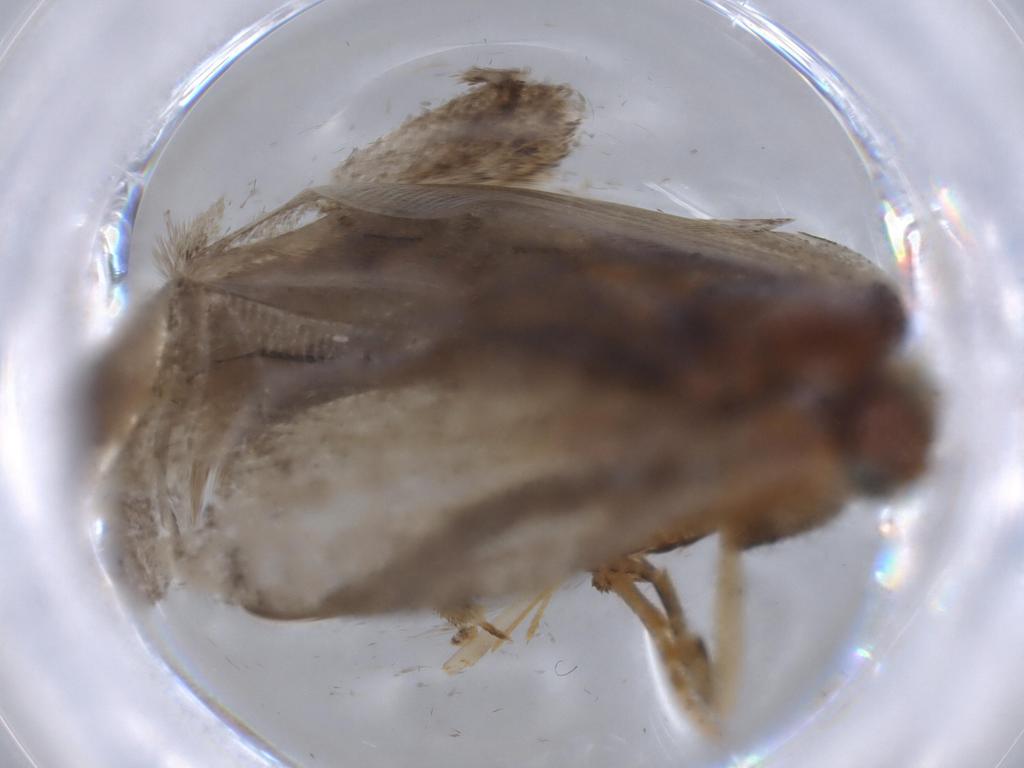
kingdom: Animalia
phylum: Arthropoda
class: Insecta
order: Lepidoptera
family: Tortricidae
